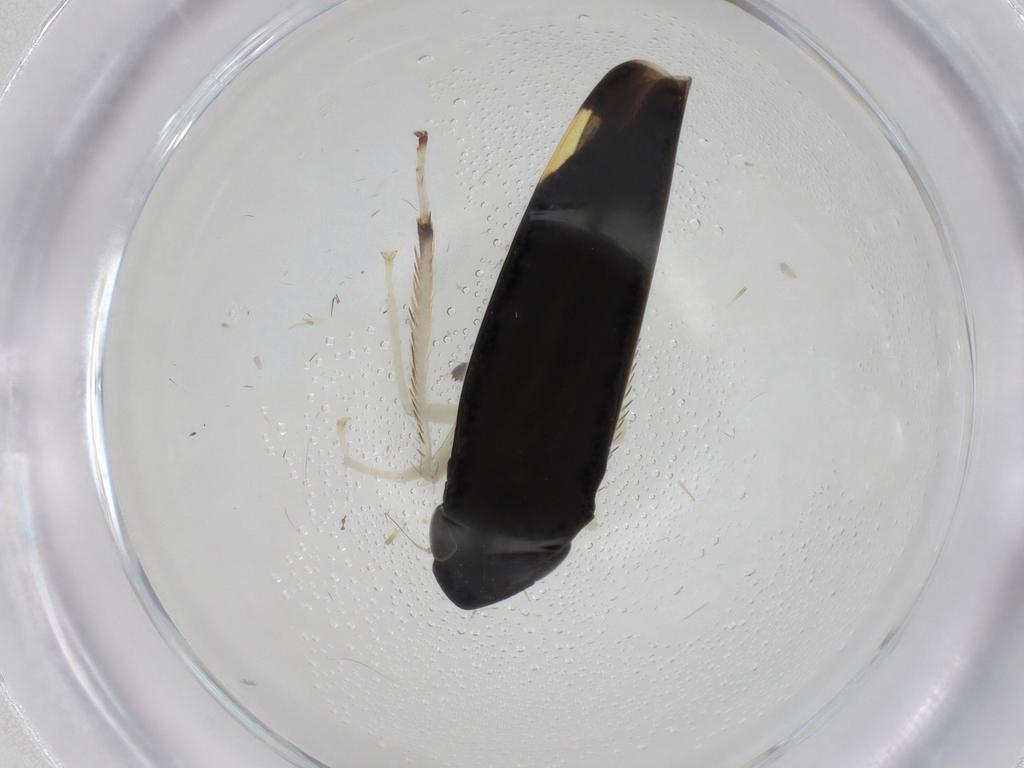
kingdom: Animalia
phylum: Arthropoda
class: Insecta
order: Hemiptera
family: Cicadellidae
